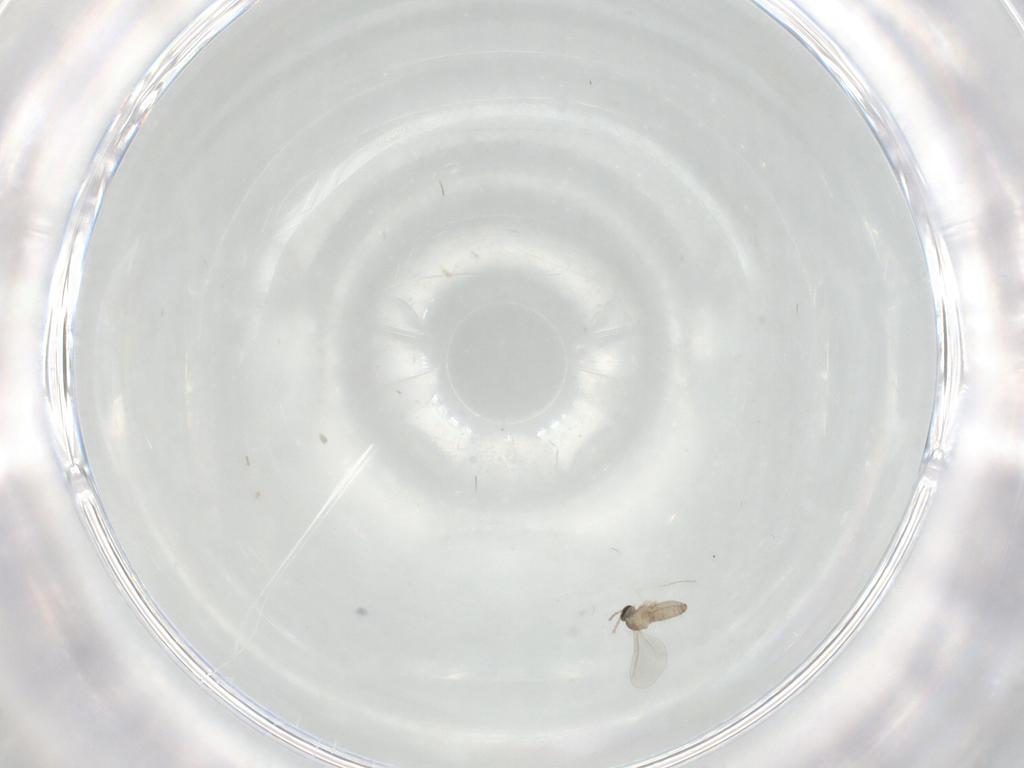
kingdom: Animalia
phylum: Arthropoda
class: Insecta
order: Diptera
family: Cecidomyiidae
